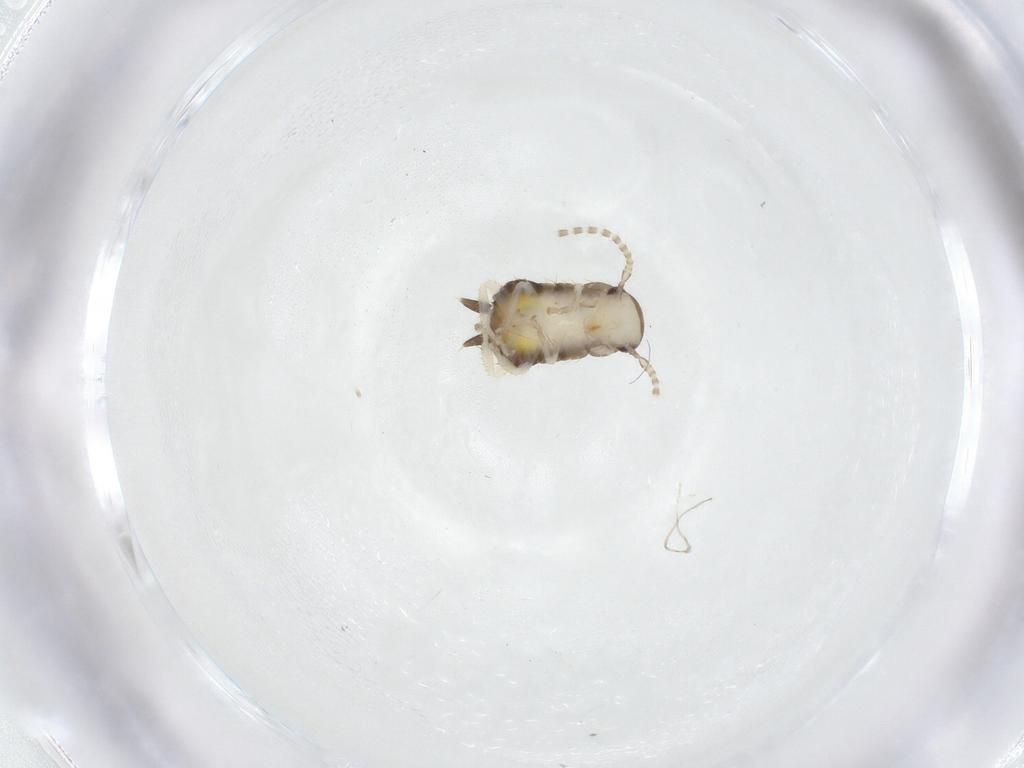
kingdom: Animalia
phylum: Arthropoda
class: Insecta
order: Blattodea
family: Ectobiidae
